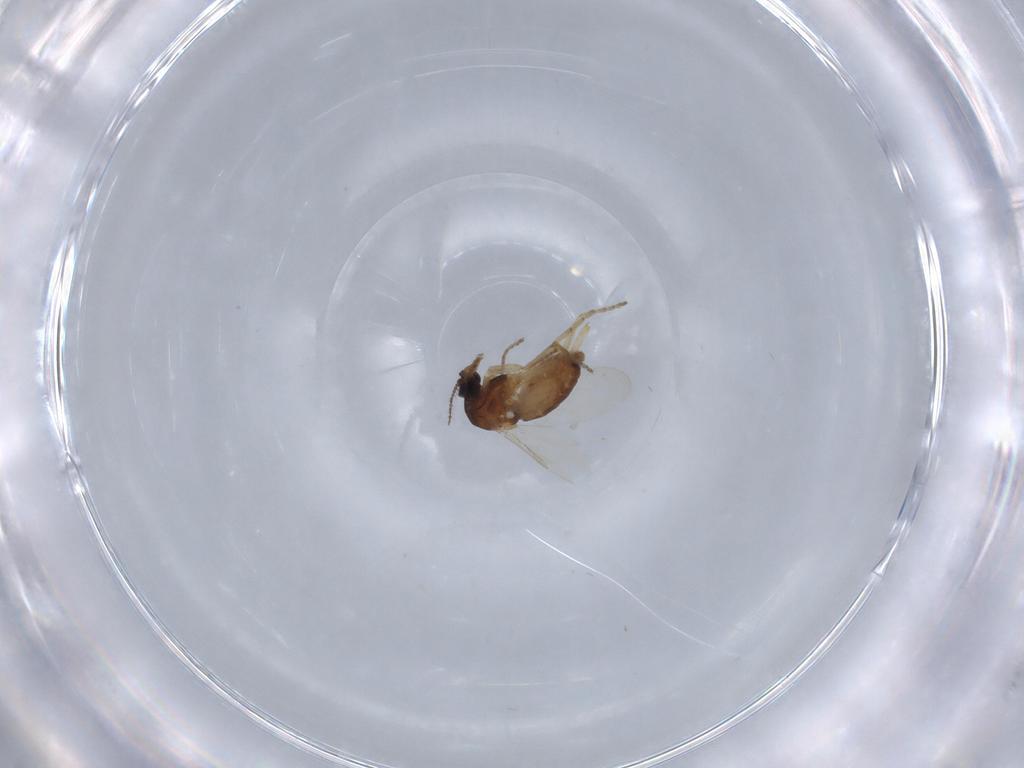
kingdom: Animalia
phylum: Arthropoda
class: Insecta
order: Diptera
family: Ceratopogonidae
